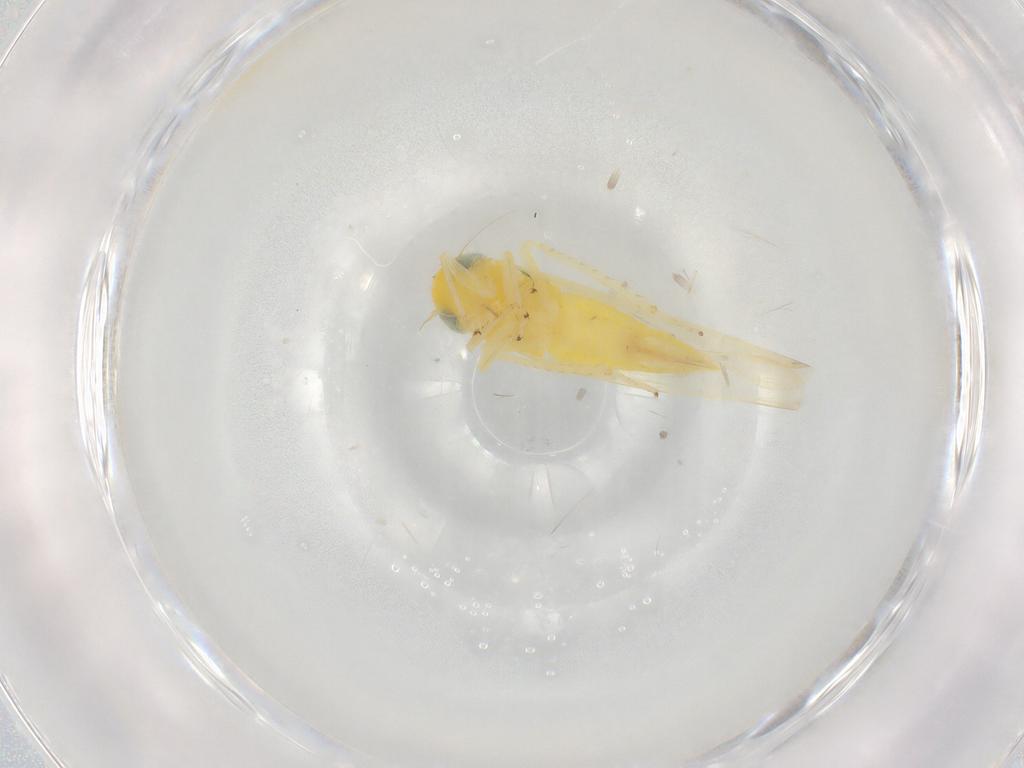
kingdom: Animalia
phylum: Arthropoda
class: Insecta
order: Hemiptera
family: Cicadellidae
